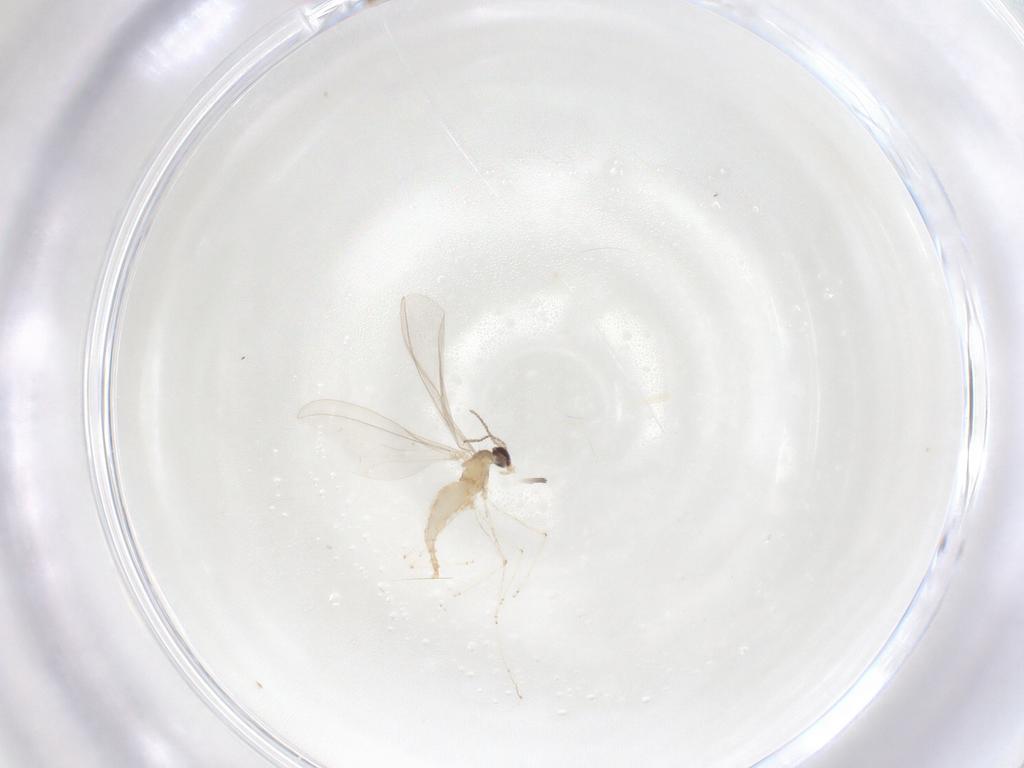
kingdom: Animalia
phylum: Arthropoda
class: Insecta
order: Diptera
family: Cecidomyiidae
